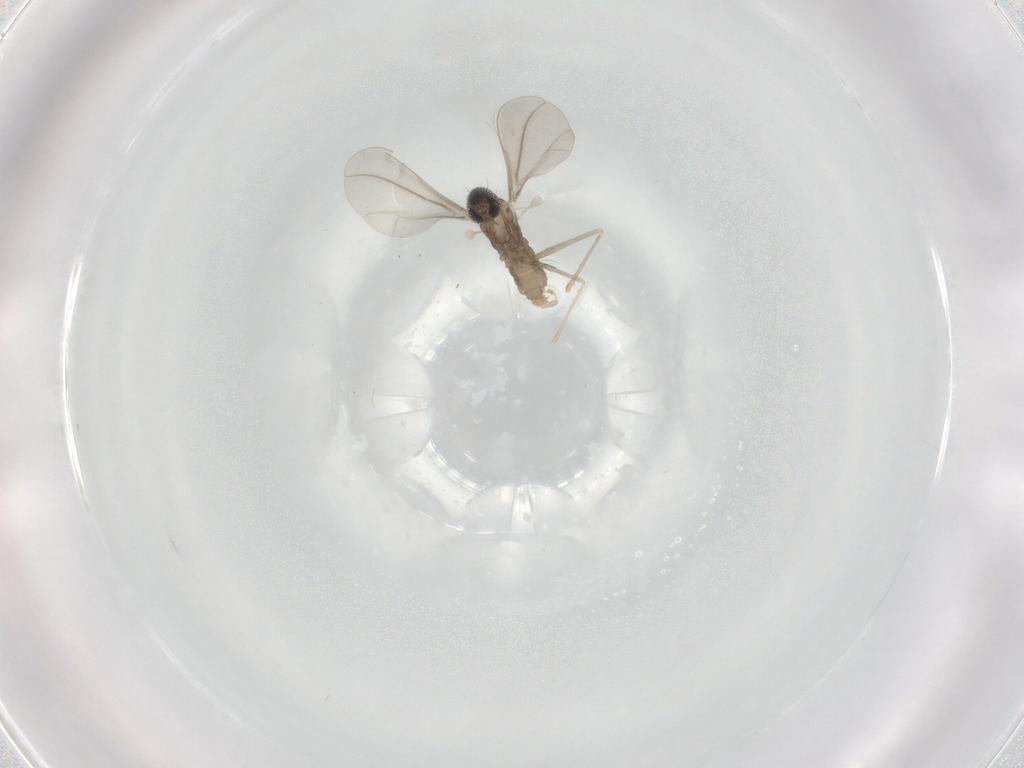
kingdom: Animalia
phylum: Arthropoda
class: Insecta
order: Diptera
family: Cecidomyiidae
